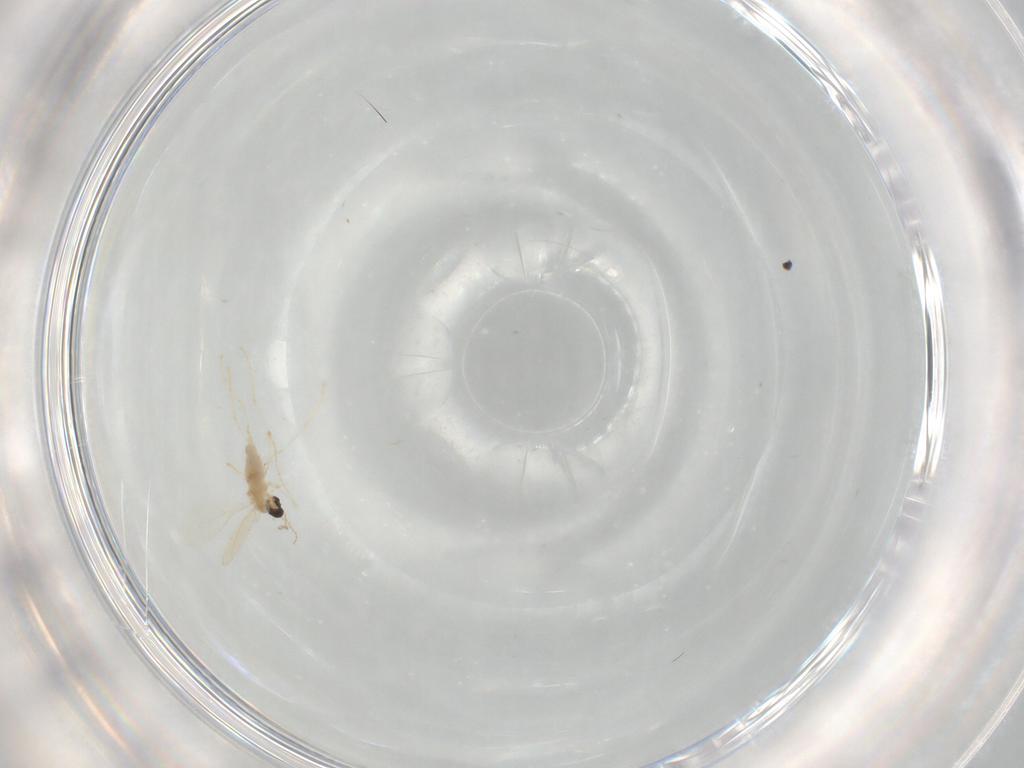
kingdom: Animalia
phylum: Arthropoda
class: Insecta
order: Diptera
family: Cecidomyiidae
